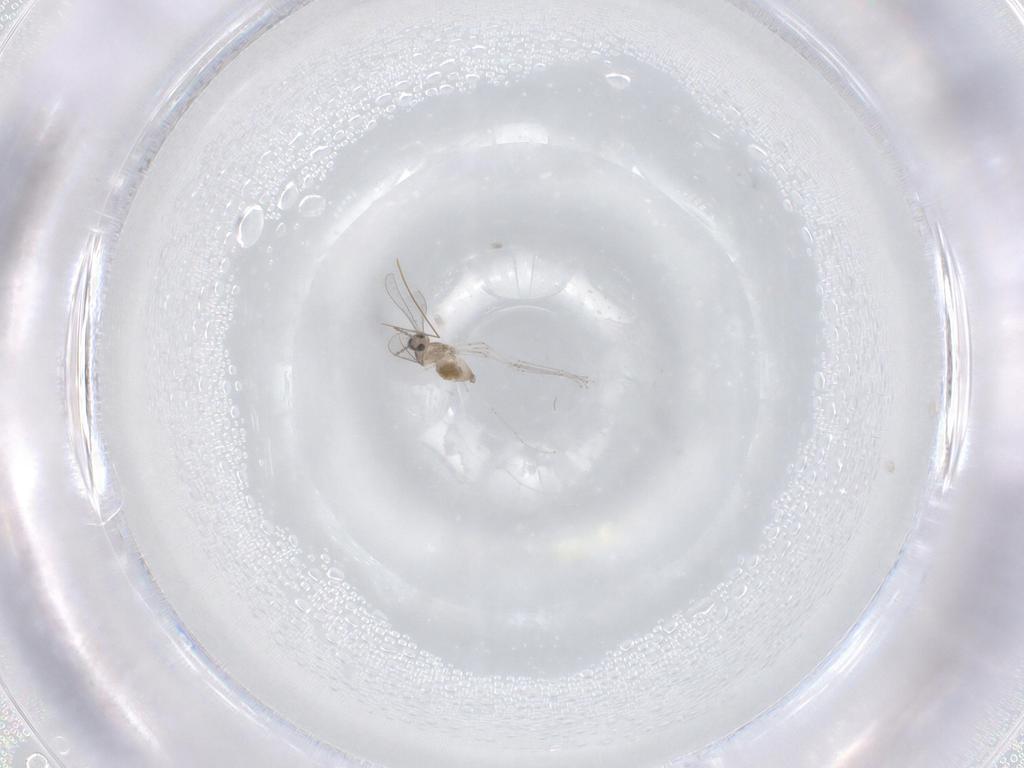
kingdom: Animalia
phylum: Arthropoda
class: Insecta
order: Diptera
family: Cecidomyiidae
